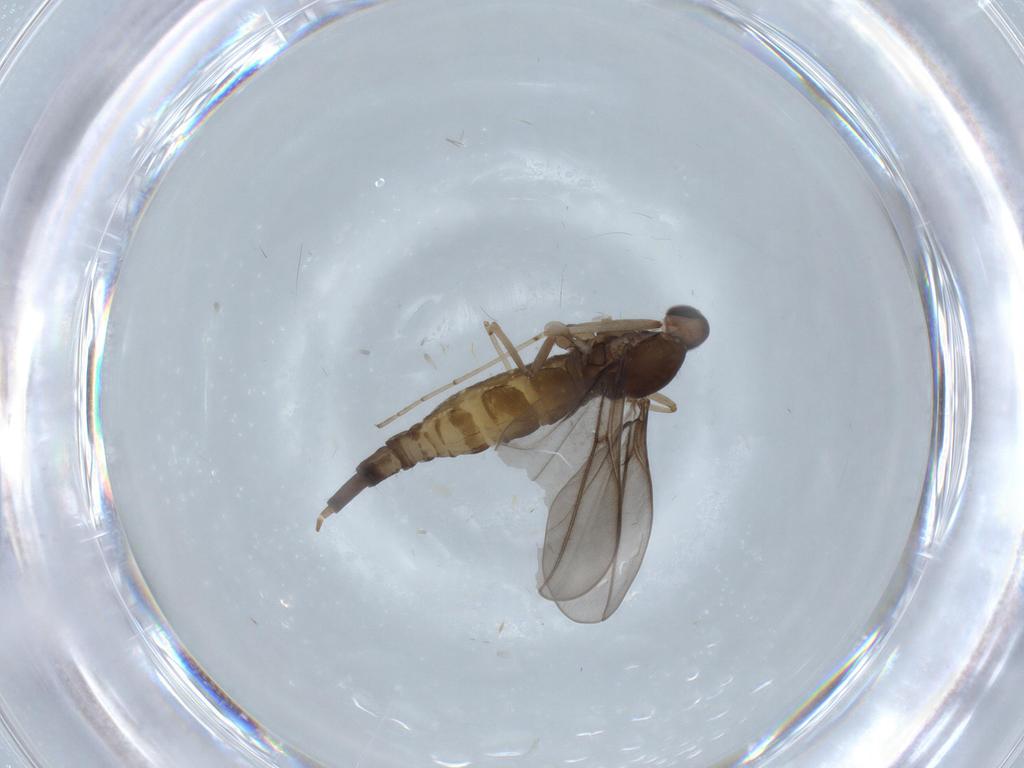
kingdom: Animalia
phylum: Arthropoda
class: Insecta
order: Diptera
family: Cecidomyiidae
